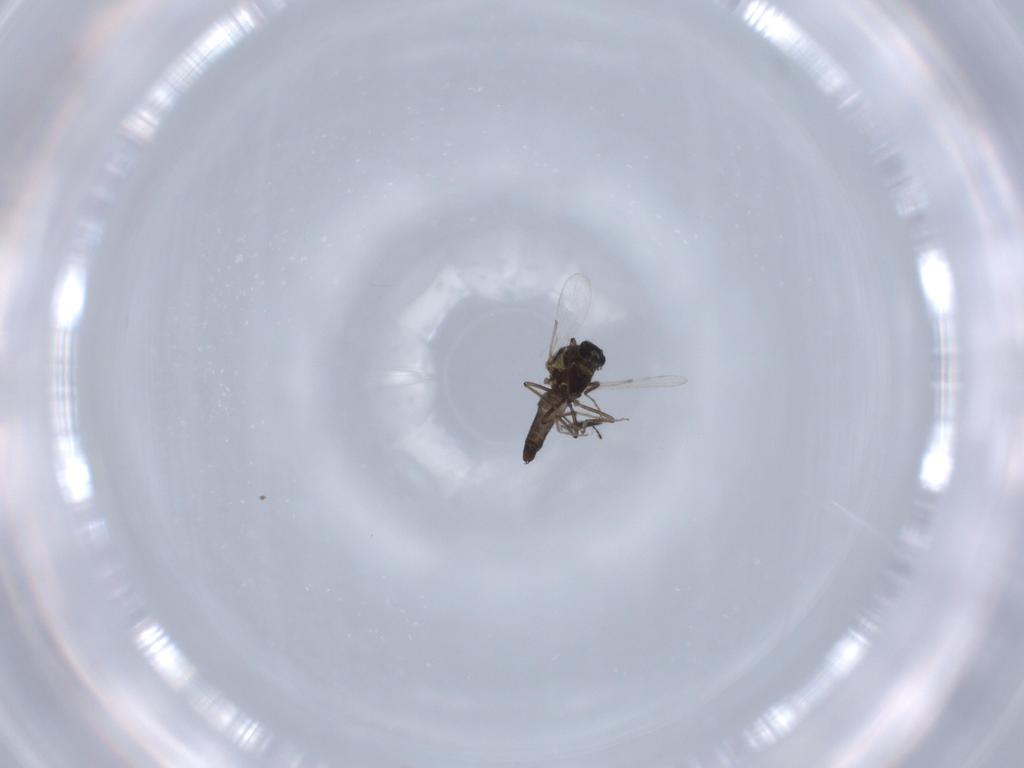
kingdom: Animalia
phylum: Arthropoda
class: Insecta
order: Diptera
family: Ceratopogonidae
